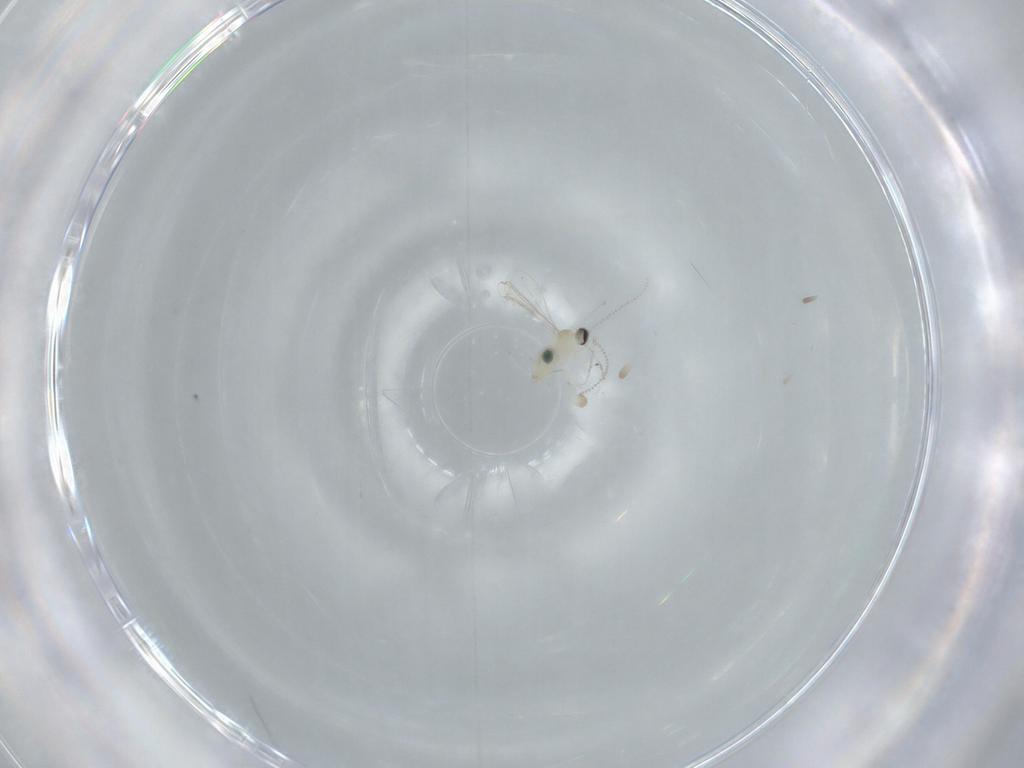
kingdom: Animalia
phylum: Arthropoda
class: Insecta
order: Diptera
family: Cecidomyiidae
